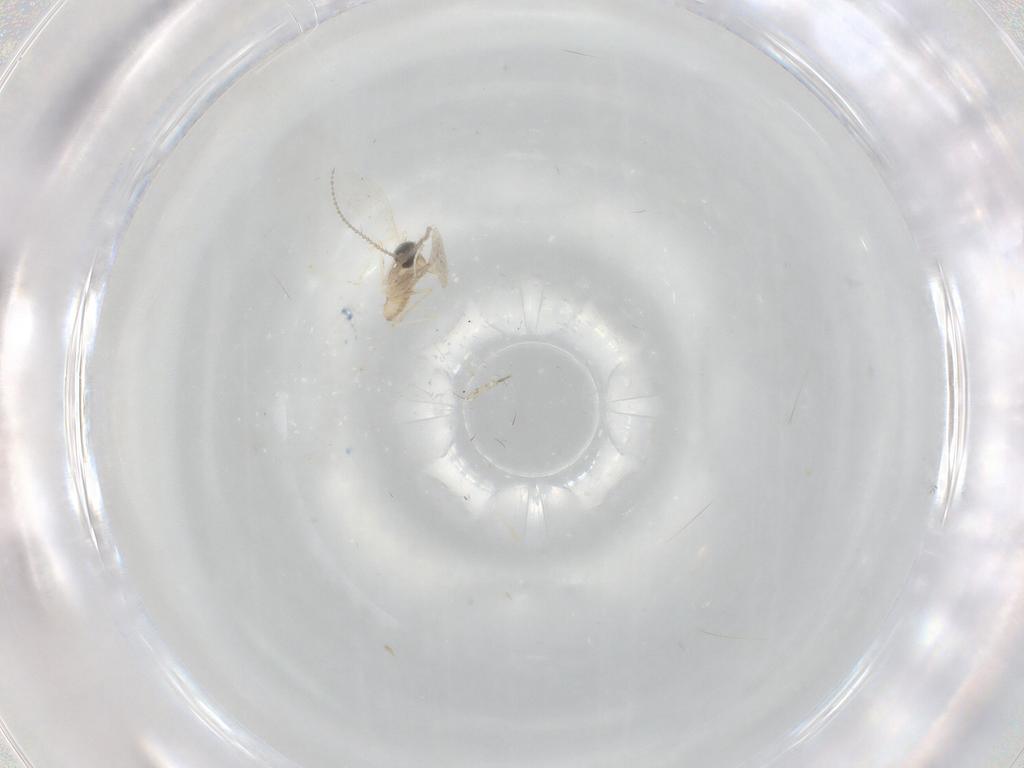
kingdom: Animalia
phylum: Arthropoda
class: Insecta
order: Diptera
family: Cecidomyiidae
